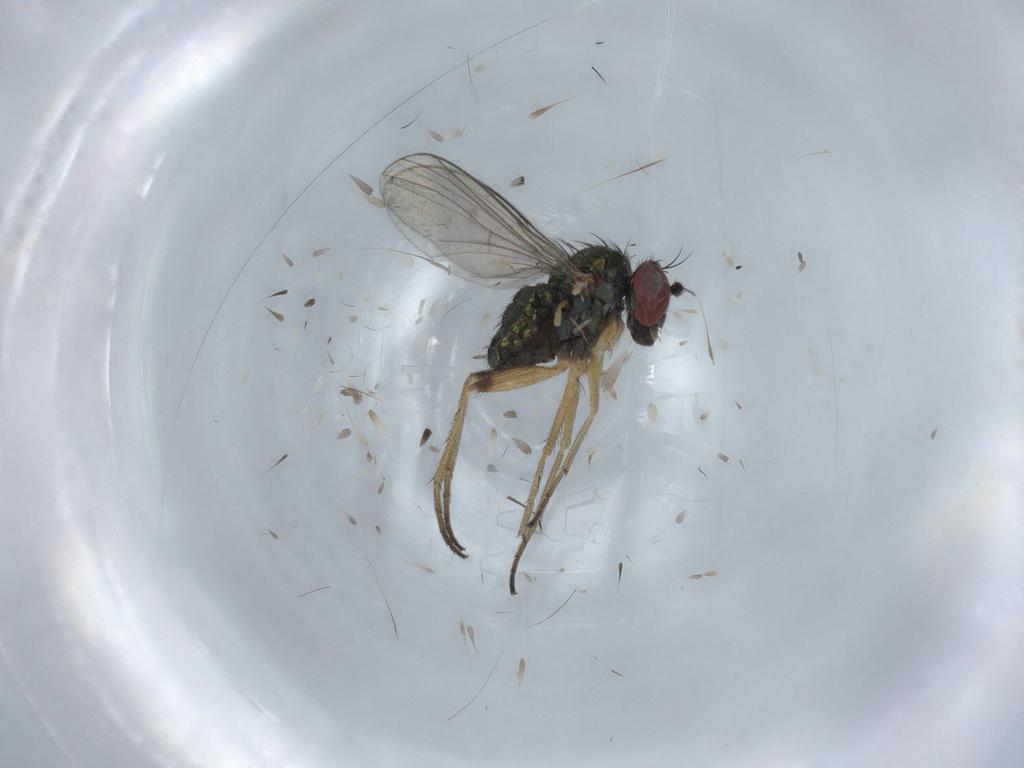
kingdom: Animalia
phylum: Arthropoda
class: Insecta
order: Diptera
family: Dolichopodidae
